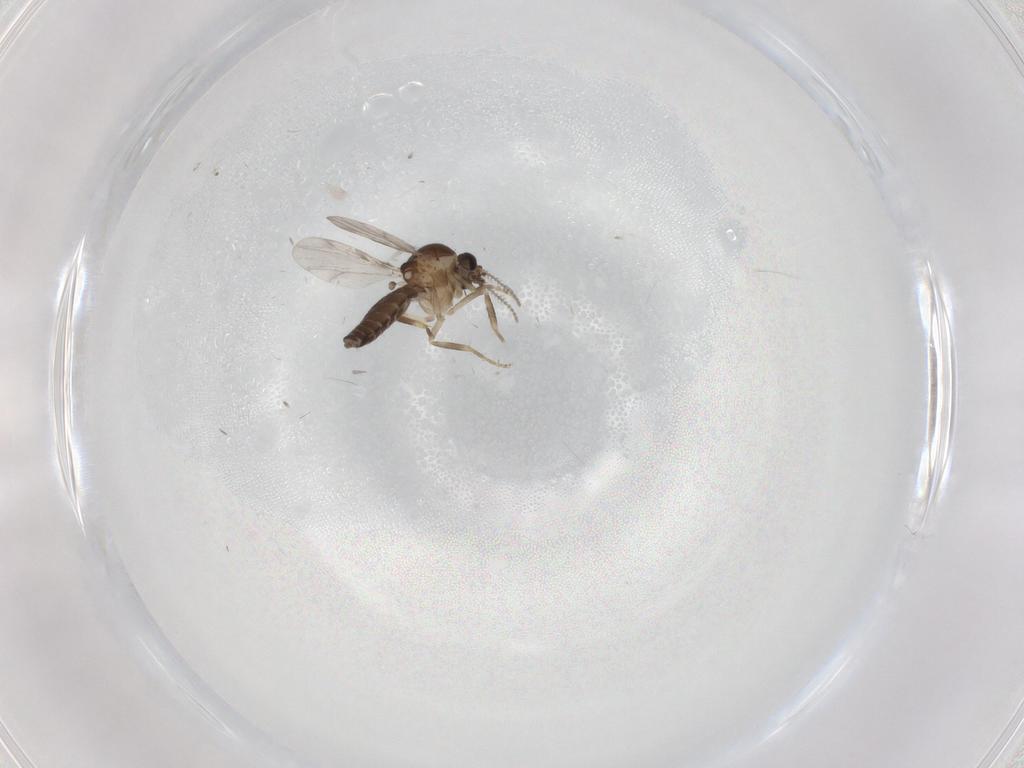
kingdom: Animalia
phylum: Arthropoda
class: Insecta
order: Diptera
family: Ceratopogonidae
